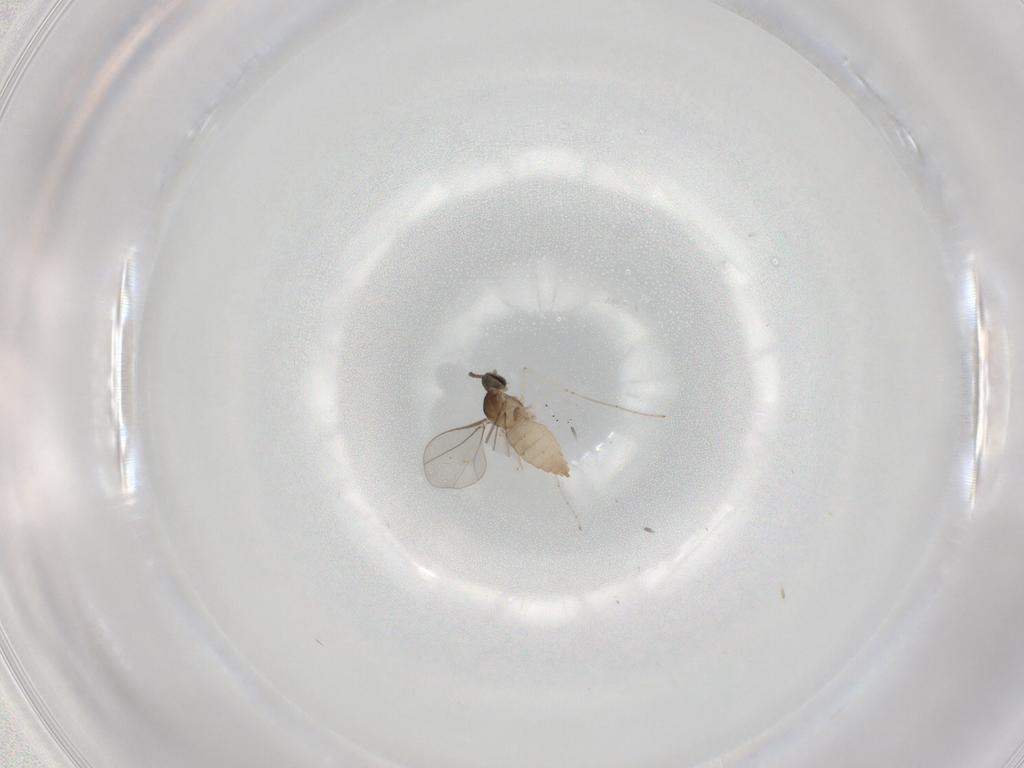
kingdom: Animalia
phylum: Arthropoda
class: Insecta
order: Diptera
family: Cecidomyiidae
